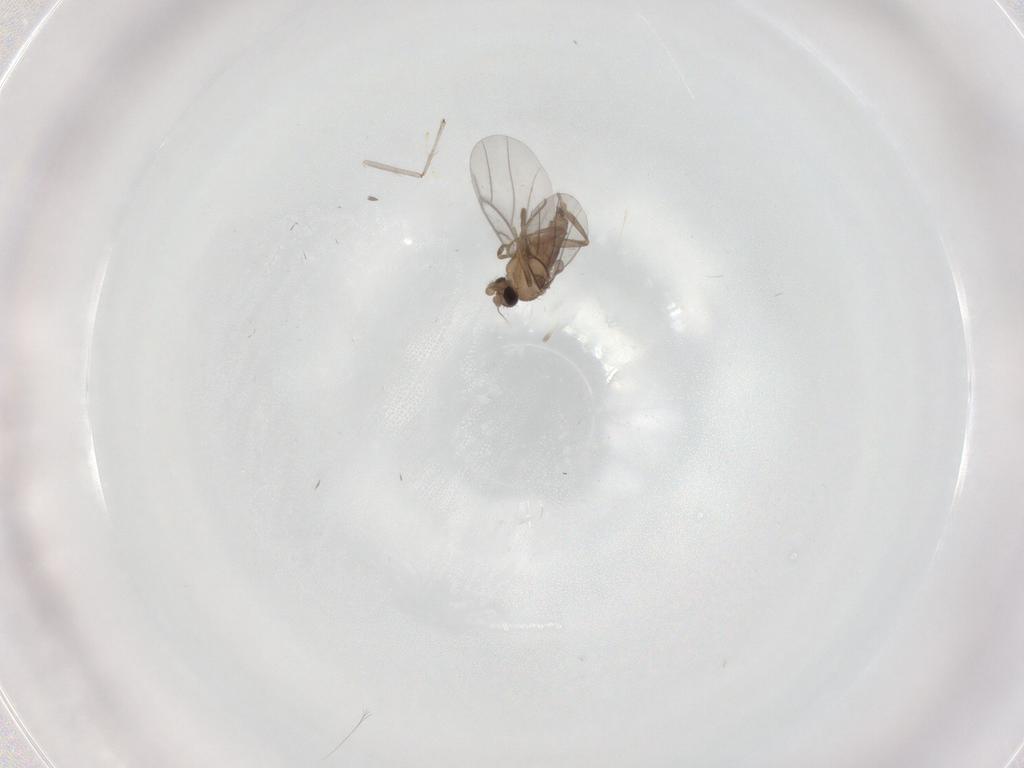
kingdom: Animalia
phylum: Arthropoda
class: Insecta
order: Diptera
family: Chironomidae
